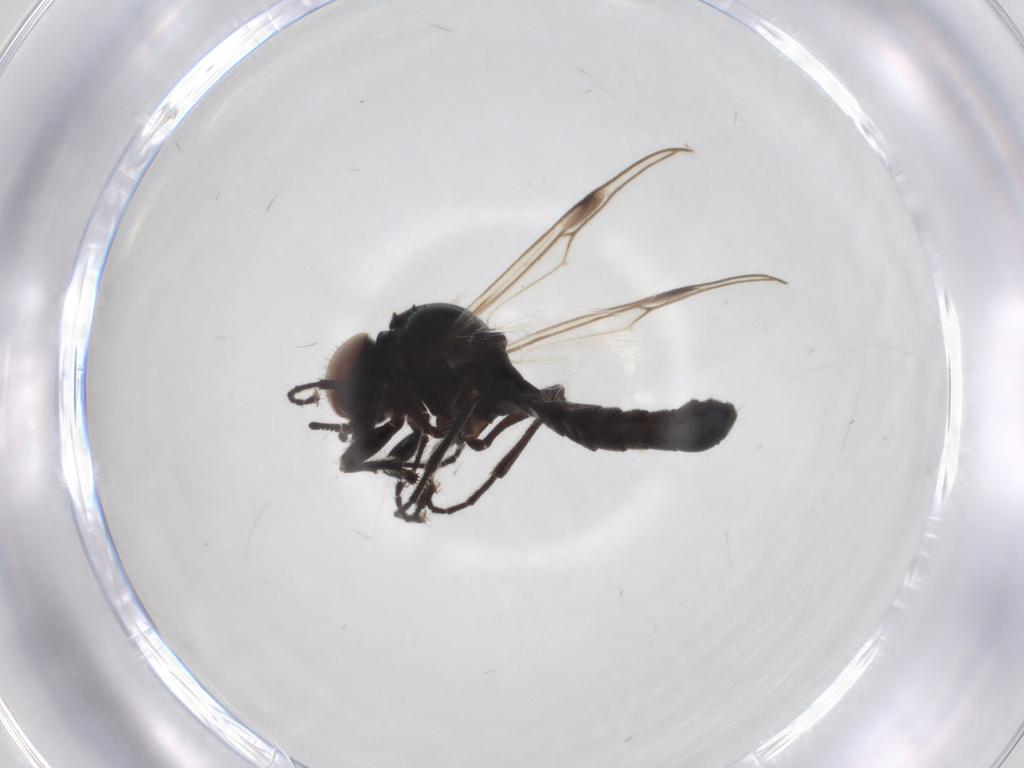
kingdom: Animalia
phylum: Arthropoda
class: Insecta
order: Diptera
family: Bibionidae
